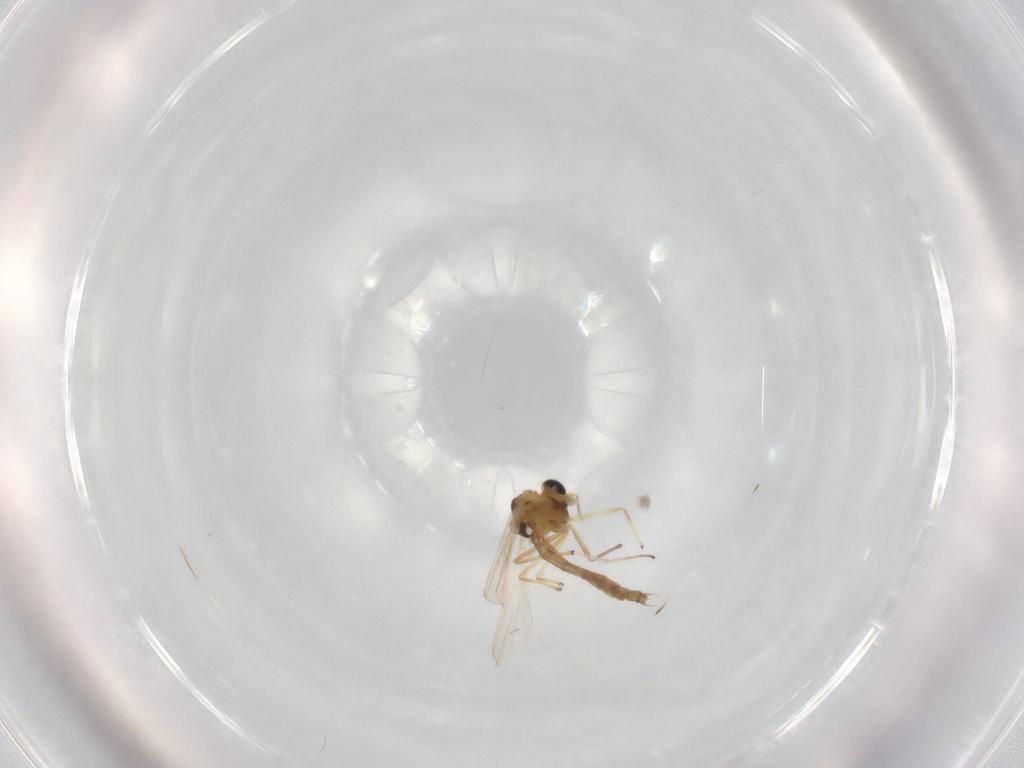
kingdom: Animalia
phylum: Arthropoda
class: Insecta
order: Diptera
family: Chironomidae
